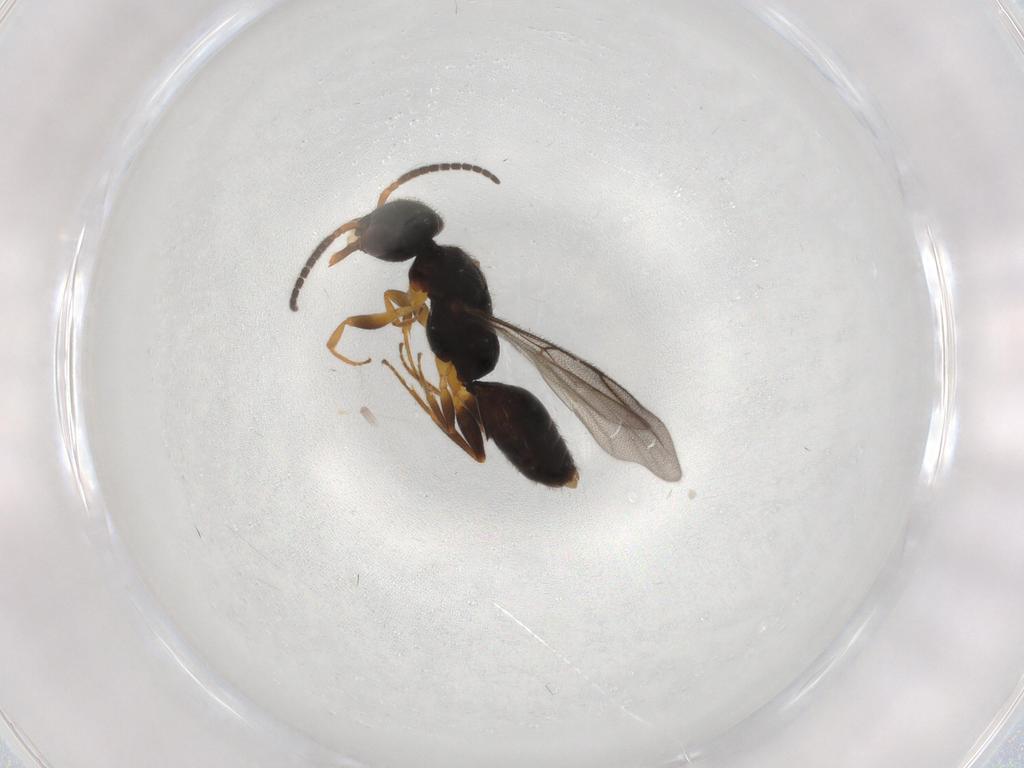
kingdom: Animalia
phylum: Arthropoda
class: Insecta
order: Hymenoptera
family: Bethylidae
